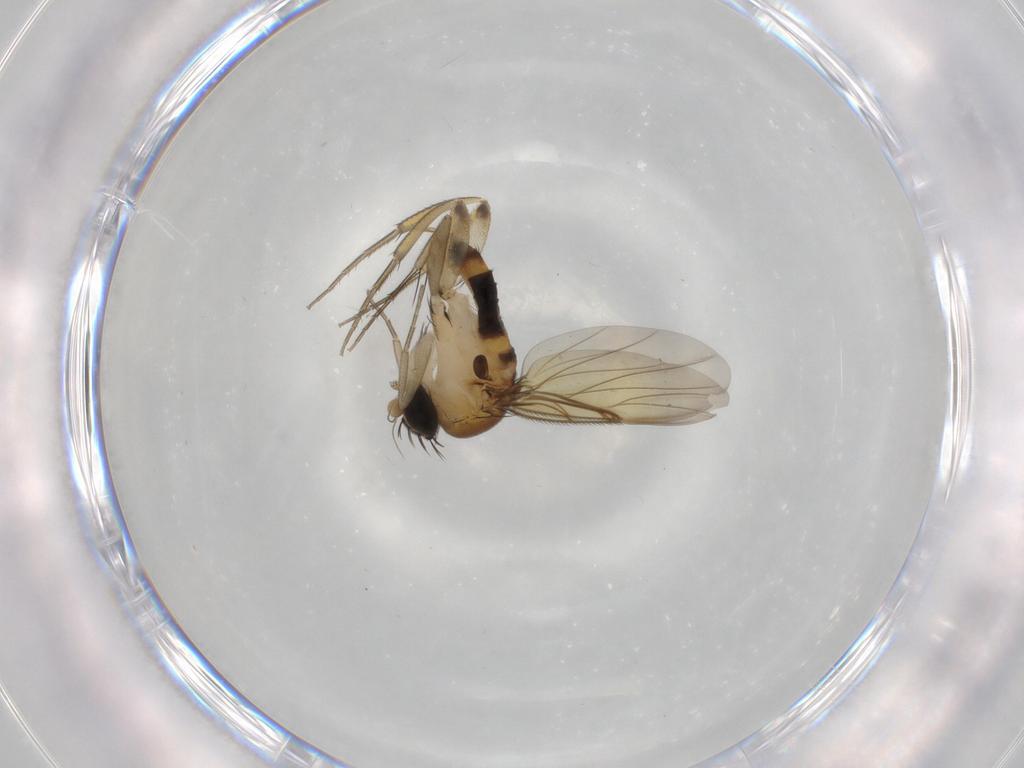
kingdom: Animalia
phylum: Arthropoda
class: Insecta
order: Diptera
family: Phoridae
